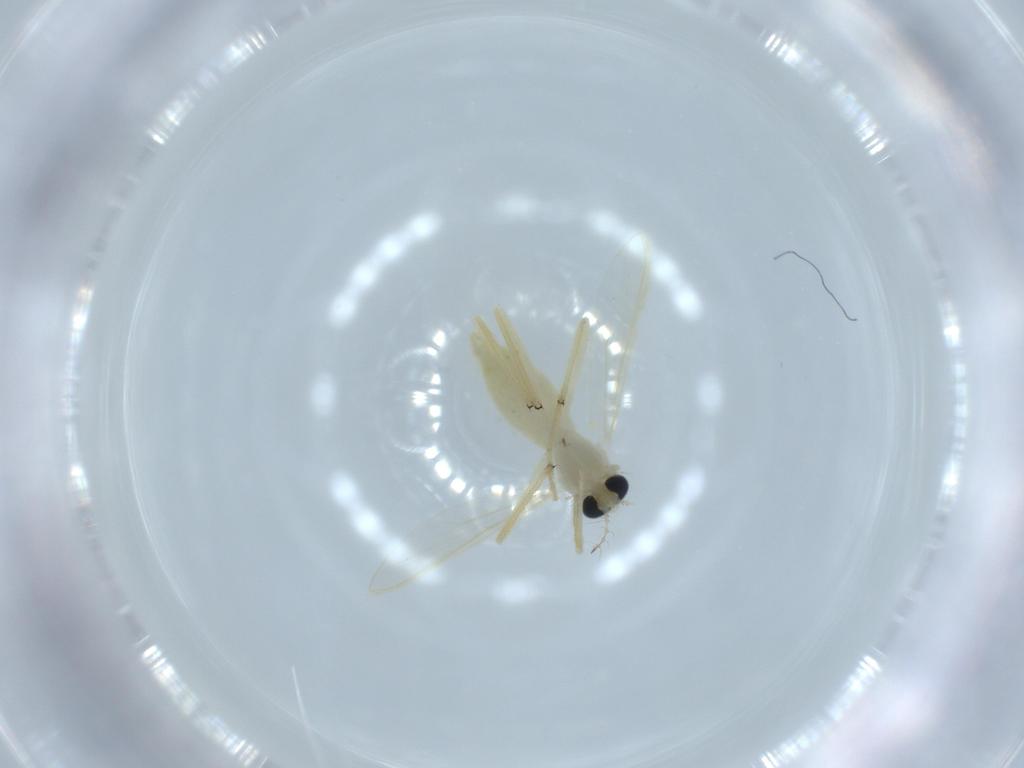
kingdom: Animalia
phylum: Arthropoda
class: Insecta
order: Diptera
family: Chironomidae
